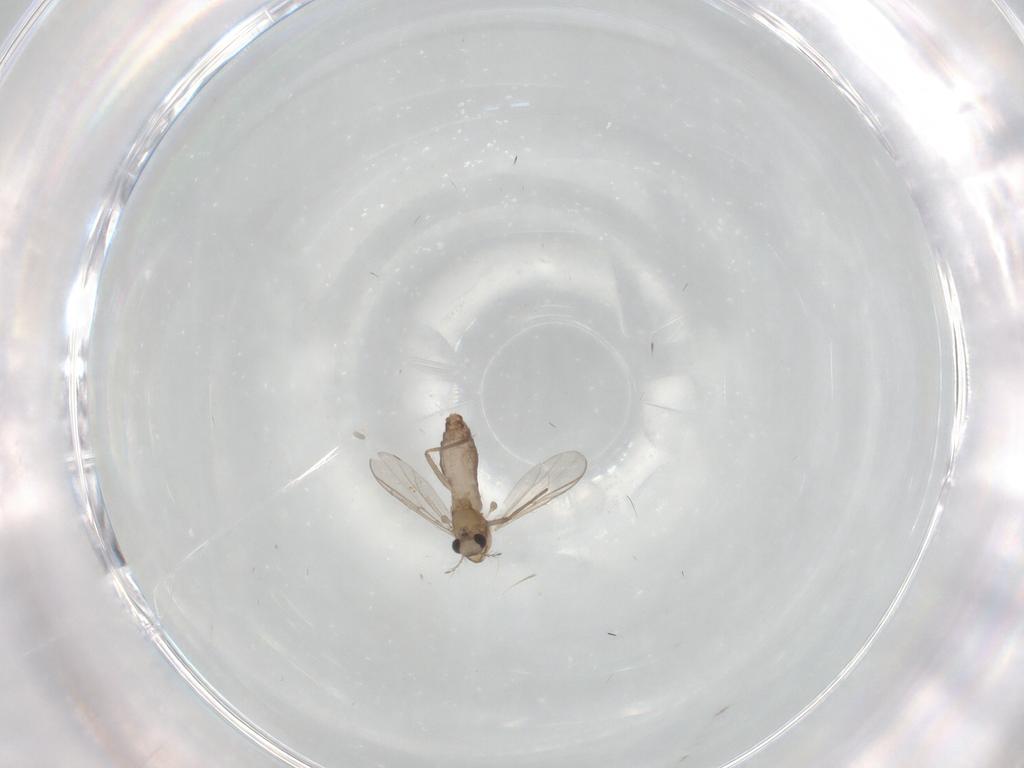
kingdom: Animalia
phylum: Arthropoda
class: Insecta
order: Diptera
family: Chironomidae
